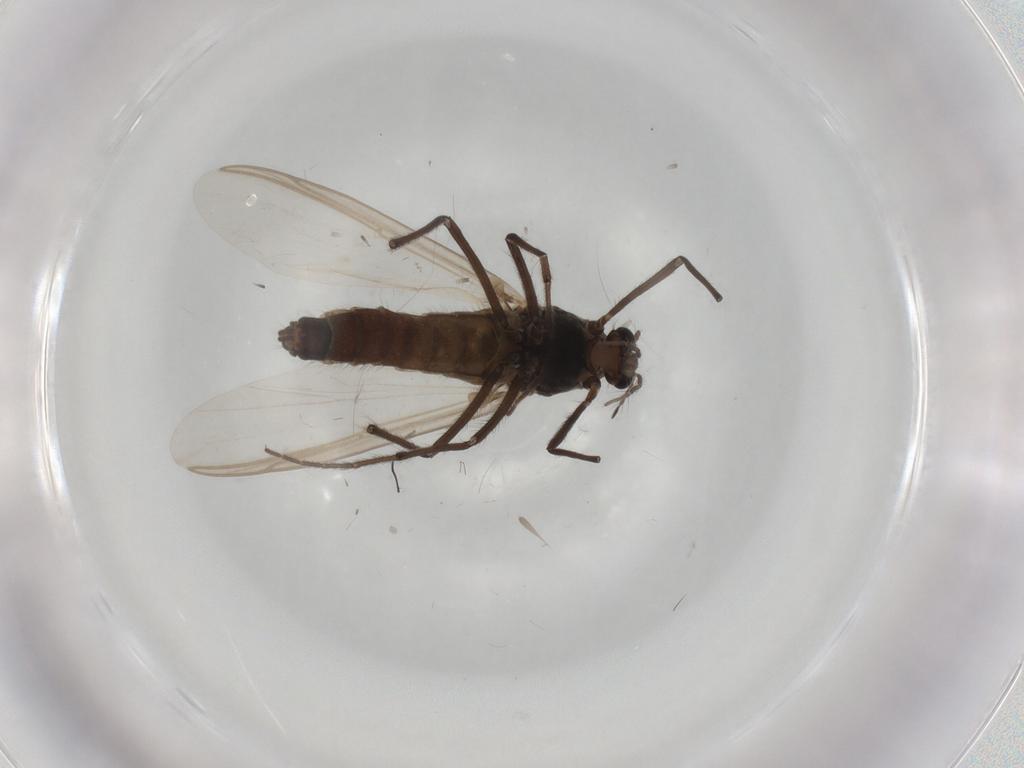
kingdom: Animalia
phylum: Arthropoda
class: Insecta
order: Diptera
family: Chironomidae
